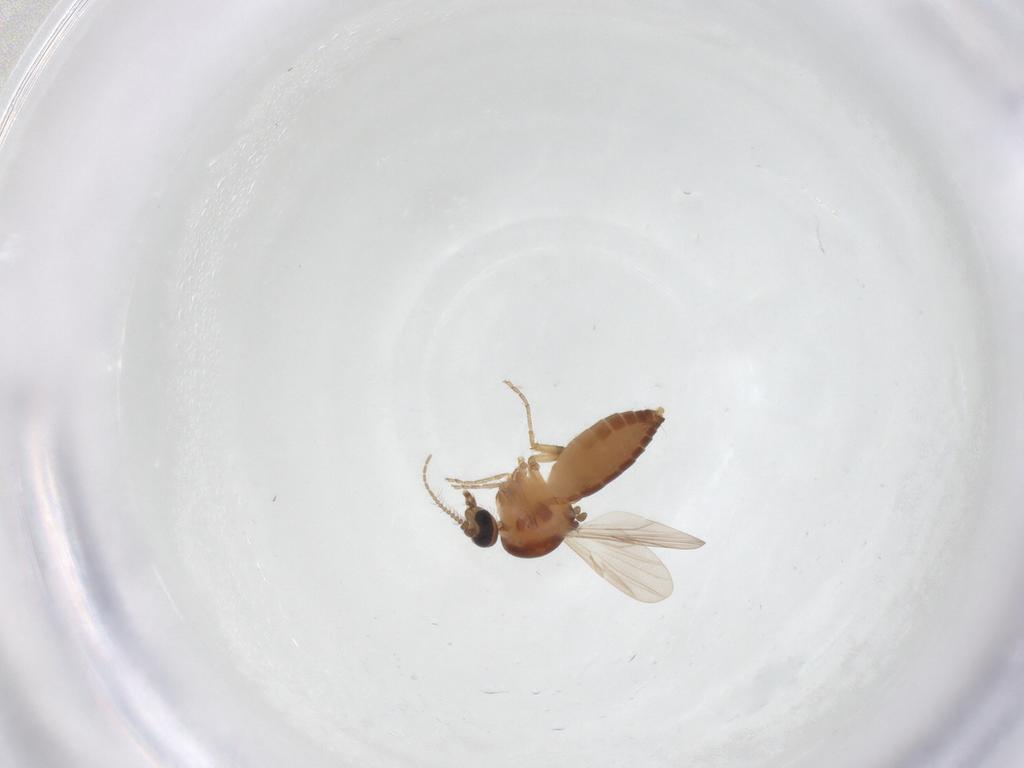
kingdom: Animalia
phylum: Arthropoda
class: Insecta
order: Diptera
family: Ceratopogonidae
